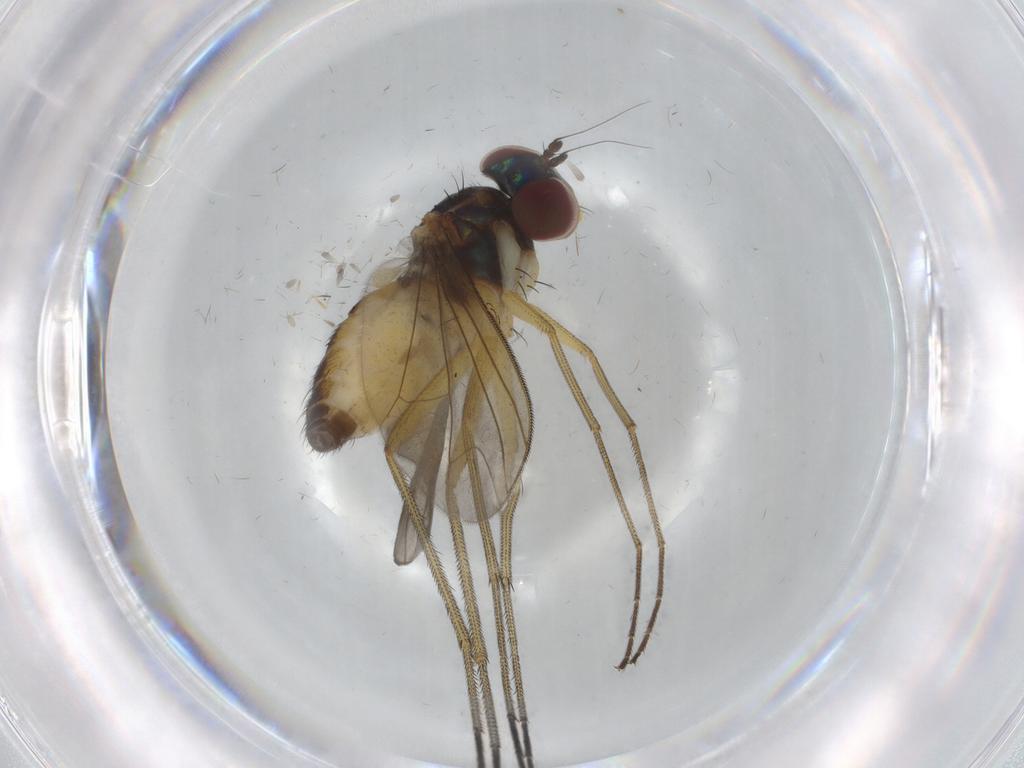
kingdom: Animalia
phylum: Arthropoda
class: Insecta
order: Diptera
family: Dolichopodidae
